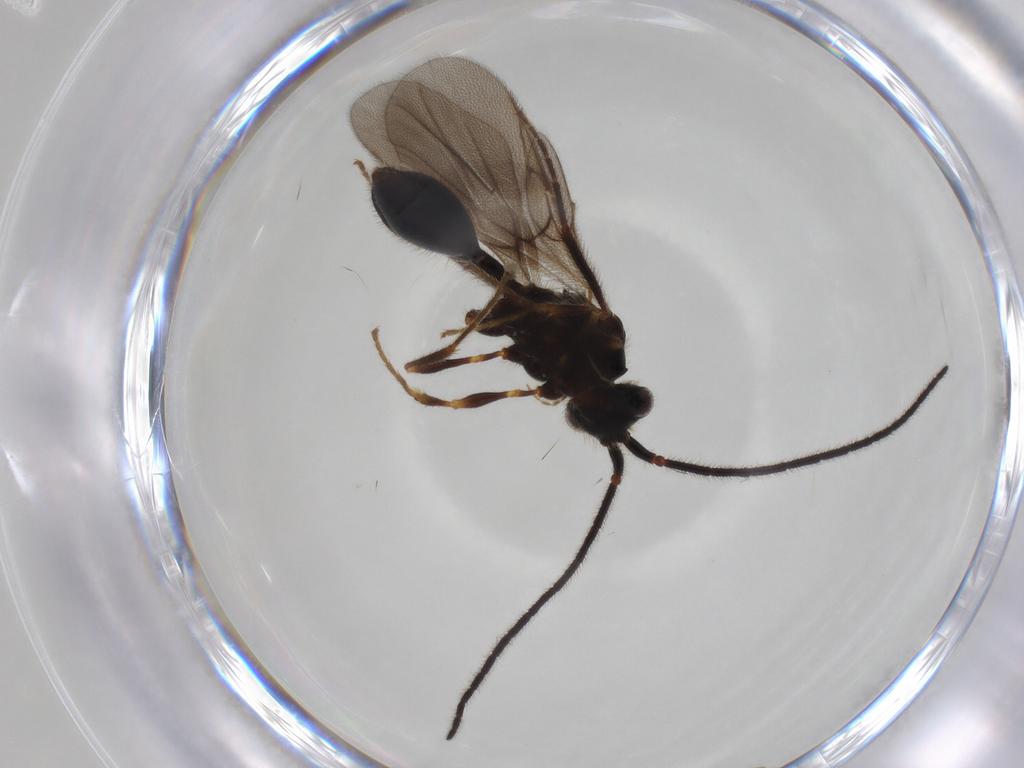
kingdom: Animalia
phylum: Arthropoda
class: Insecta
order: Hymenoptera
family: Diapriidae
